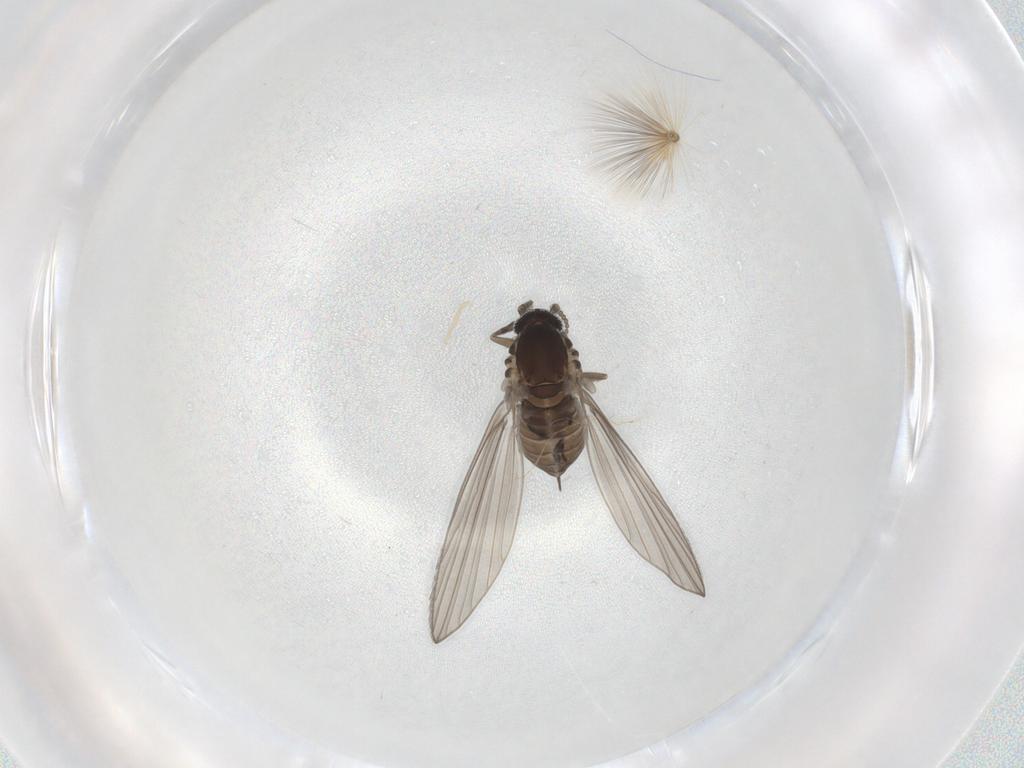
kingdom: Animalia
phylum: Arthropoda
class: Insecta
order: Diptera
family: Psychodidae
